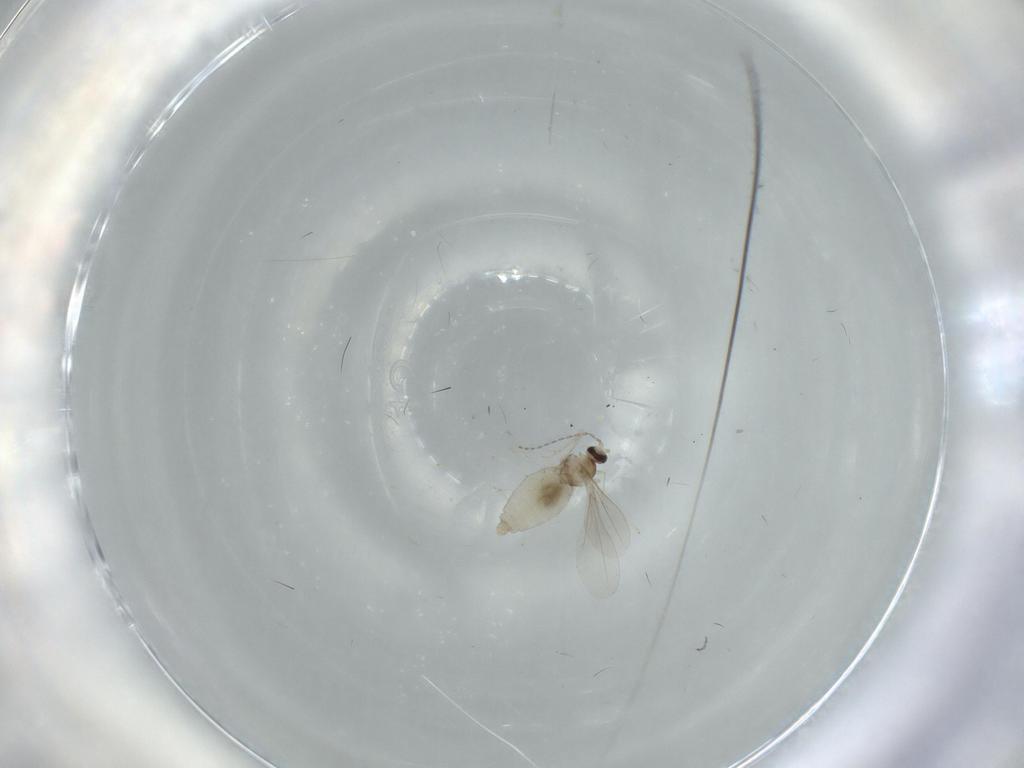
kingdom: Animalia
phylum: Arthropoda
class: Insecta
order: Diptera
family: Cecidomyiidae
